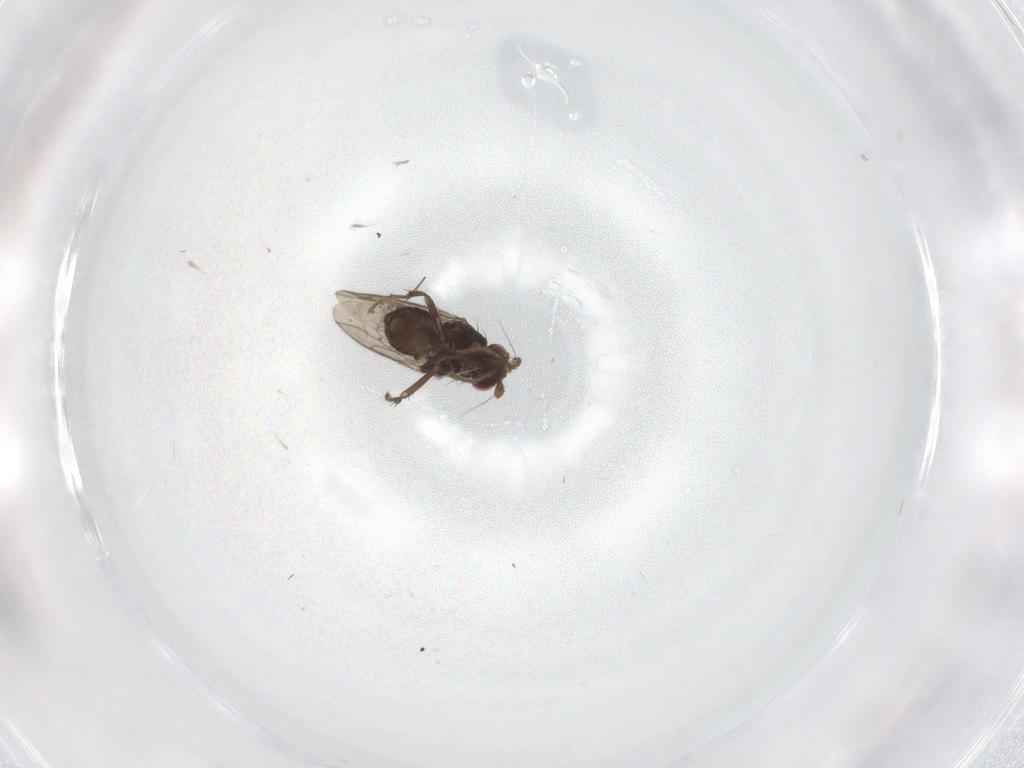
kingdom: Animalia
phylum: Arthropoda
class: Insecta
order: Diptera
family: Sphaeroceridae
